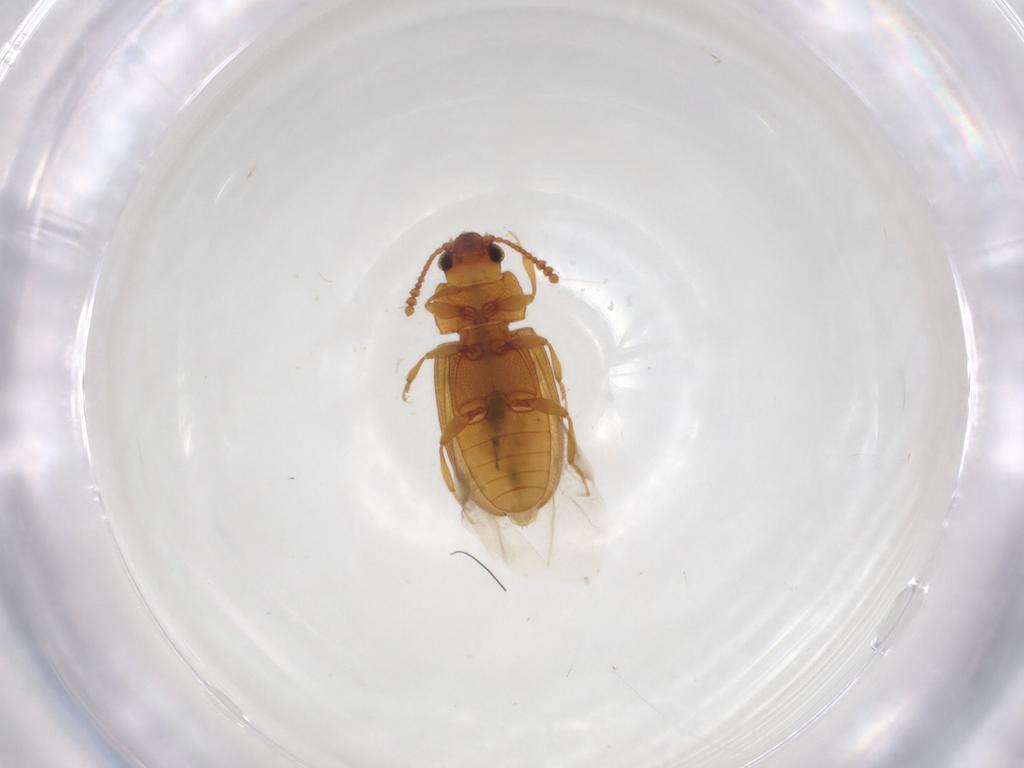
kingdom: Animalia
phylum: Arthropoda
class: Insecta
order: Coleoptera
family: Erotylidae
